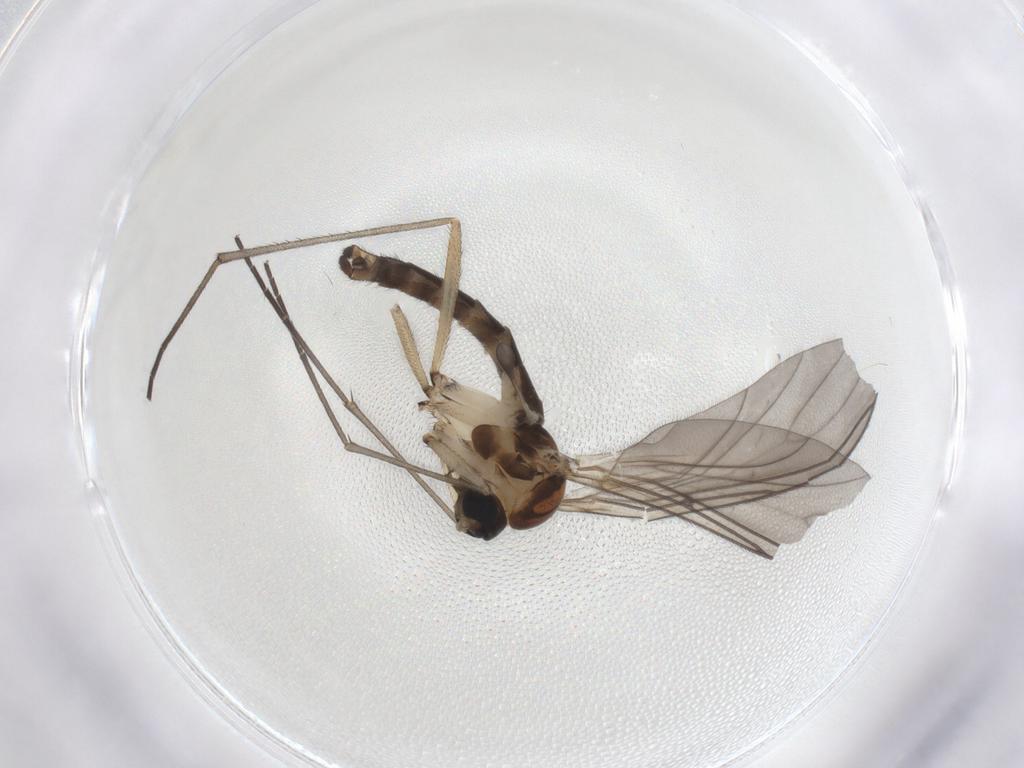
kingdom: Animalia
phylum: Arthropoda
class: Insecta
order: Diptera
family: Sciaridae
